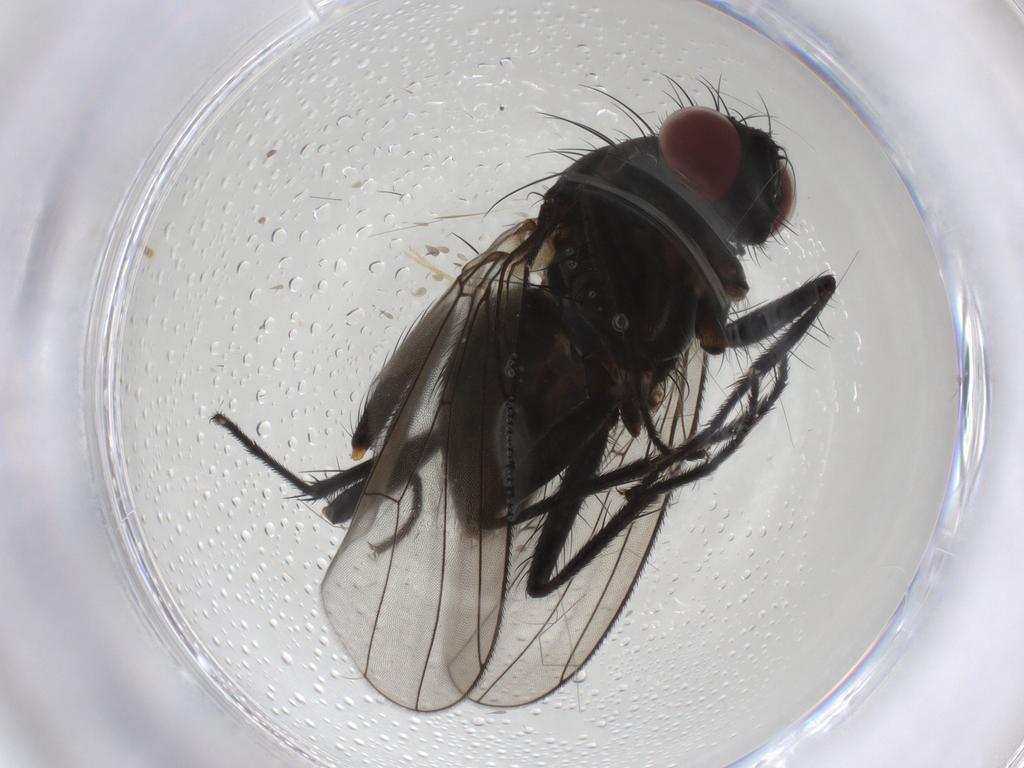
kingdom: Animalia
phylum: Arthropoda
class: Insecta
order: Diptera
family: Muscidae
